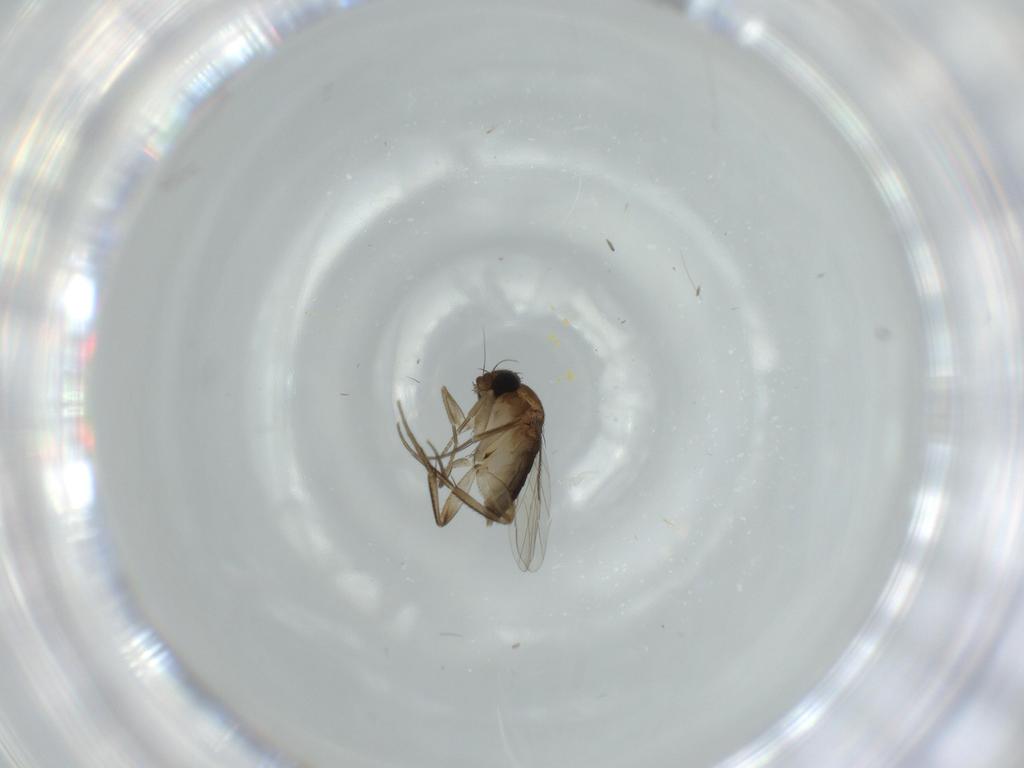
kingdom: Animalia
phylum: Arthropoda
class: Insecta
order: Diptera
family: Phoridae
